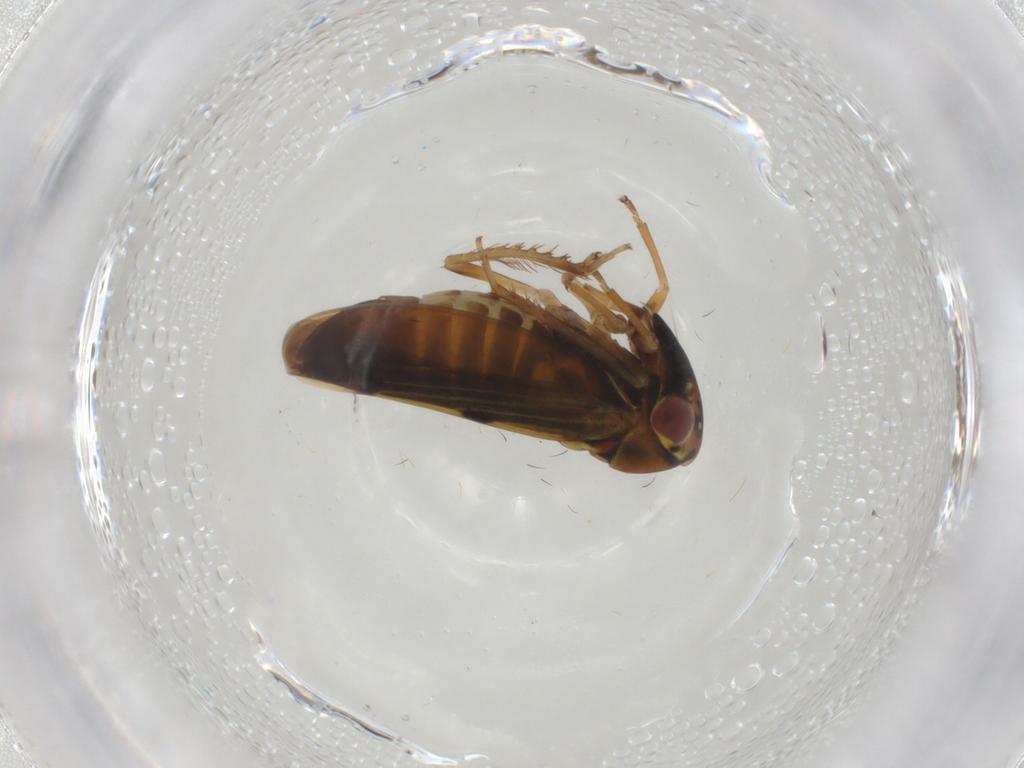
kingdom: Animalia
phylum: Arthropoda
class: Insecta
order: Hemiptera
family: Cicadellidae
